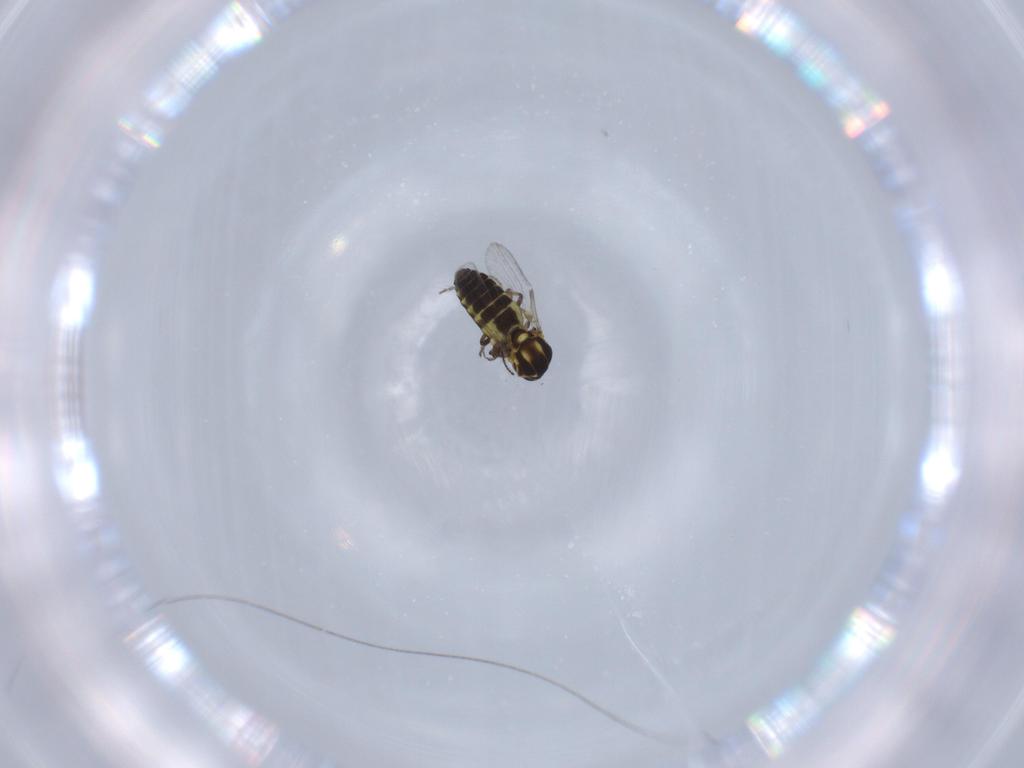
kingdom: Animalia
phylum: Arthropoda
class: Insecta
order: Diptera
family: Ceratopogonidae
